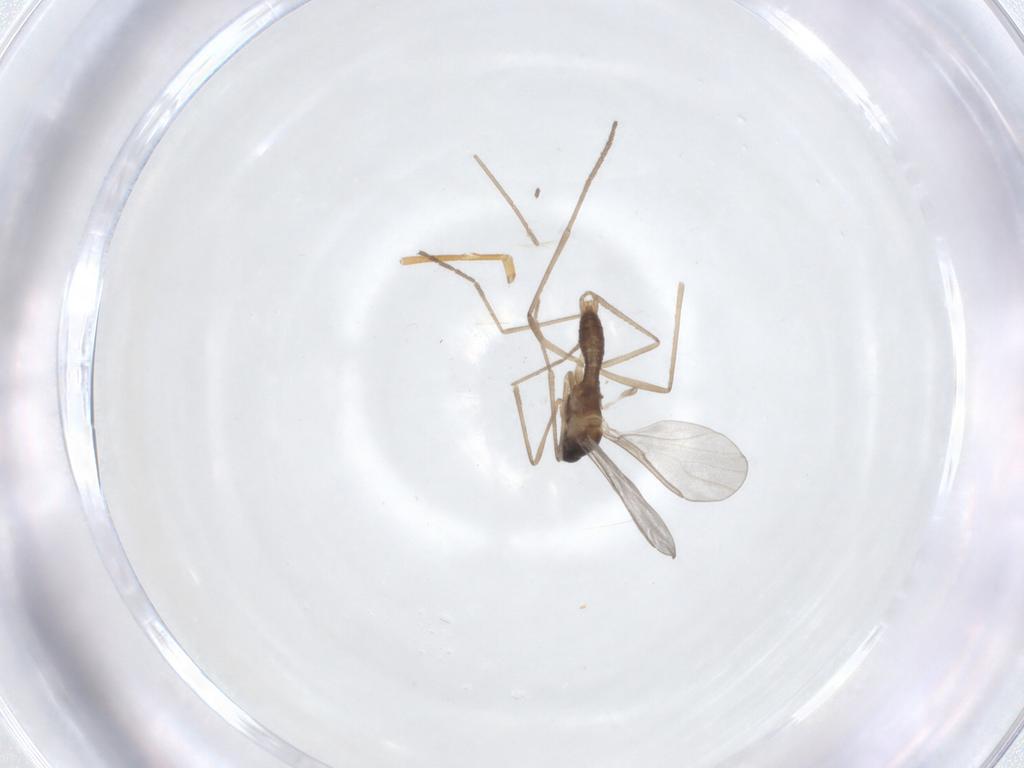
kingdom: Animalia
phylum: Arthropoda
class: Insecta
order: Diptera
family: Cecidomyiidae
